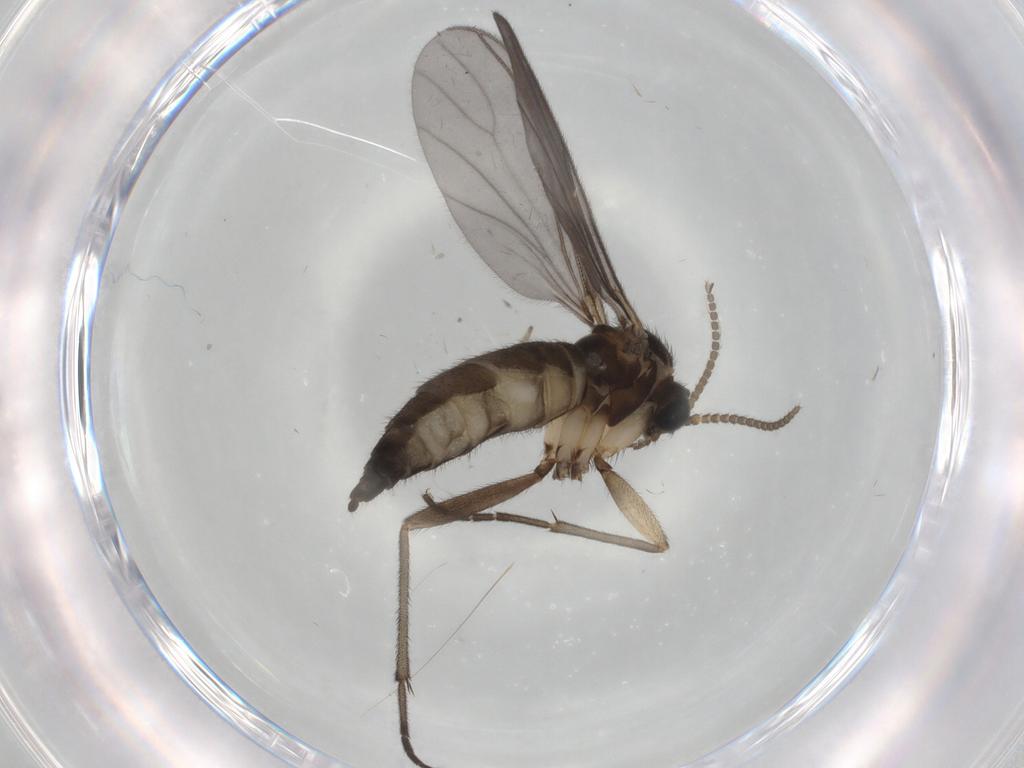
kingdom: Animalia
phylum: Arthropoda
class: Insecta
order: Diptera
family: Sciaridae
